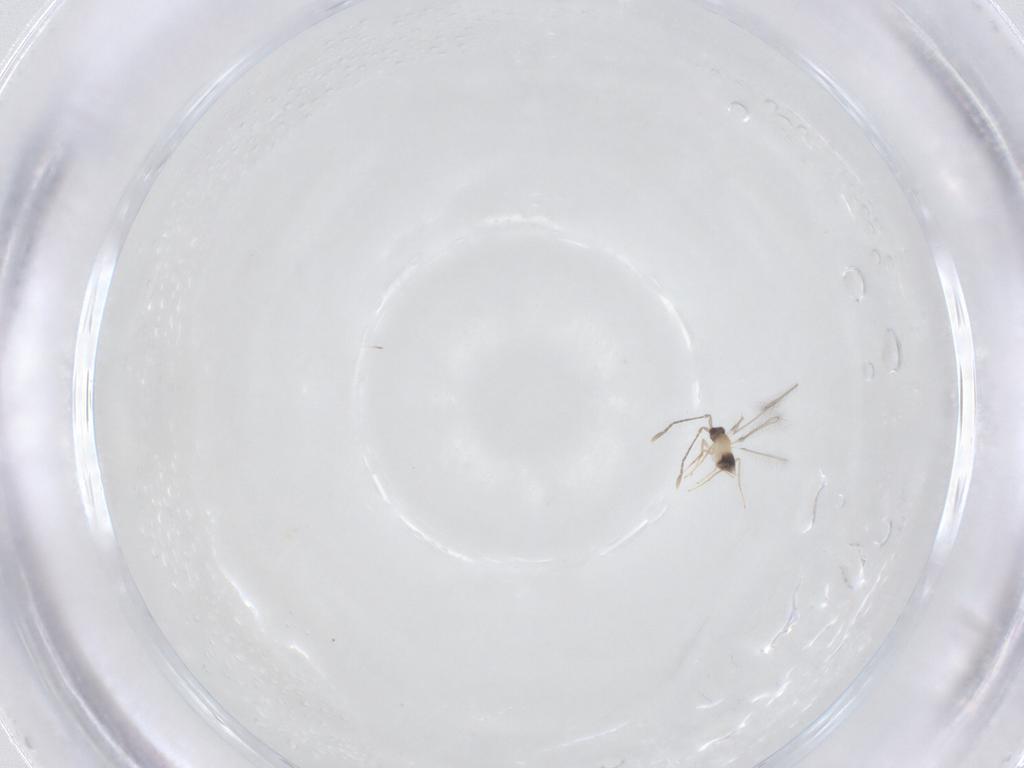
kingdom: Animalia
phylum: Arthropoda
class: Insecta
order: Hymenoptera
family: Mymaridae
